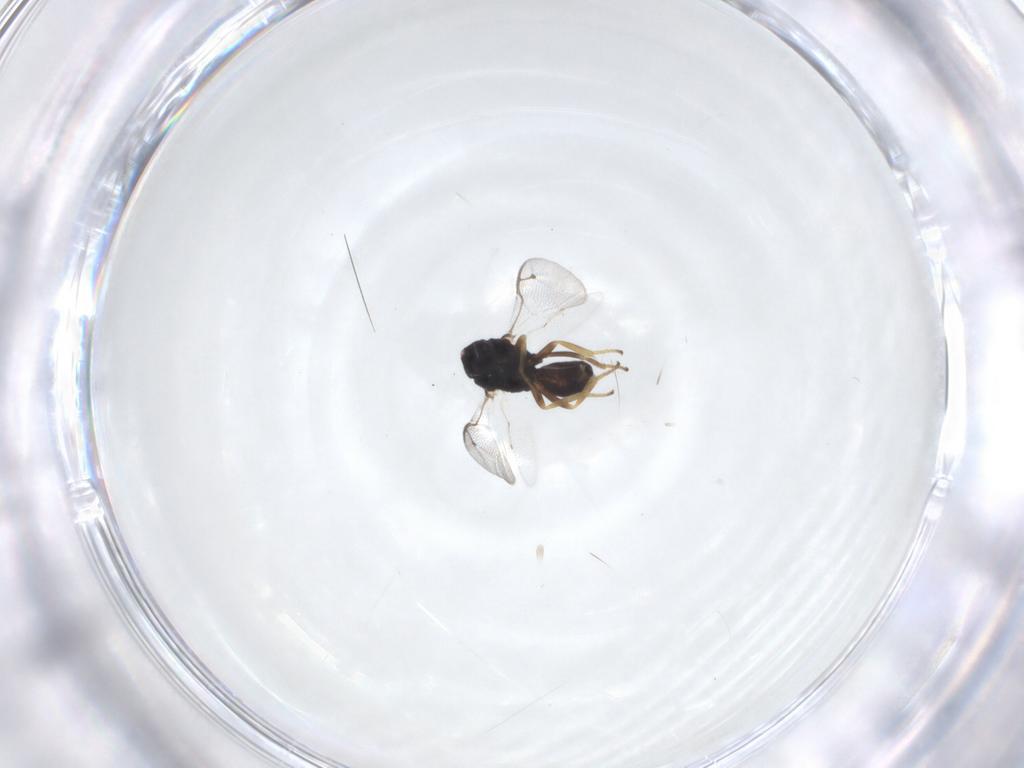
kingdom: Animalia
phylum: Arthropoda
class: Insecta
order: Hymenoptera
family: Pteromalidae
